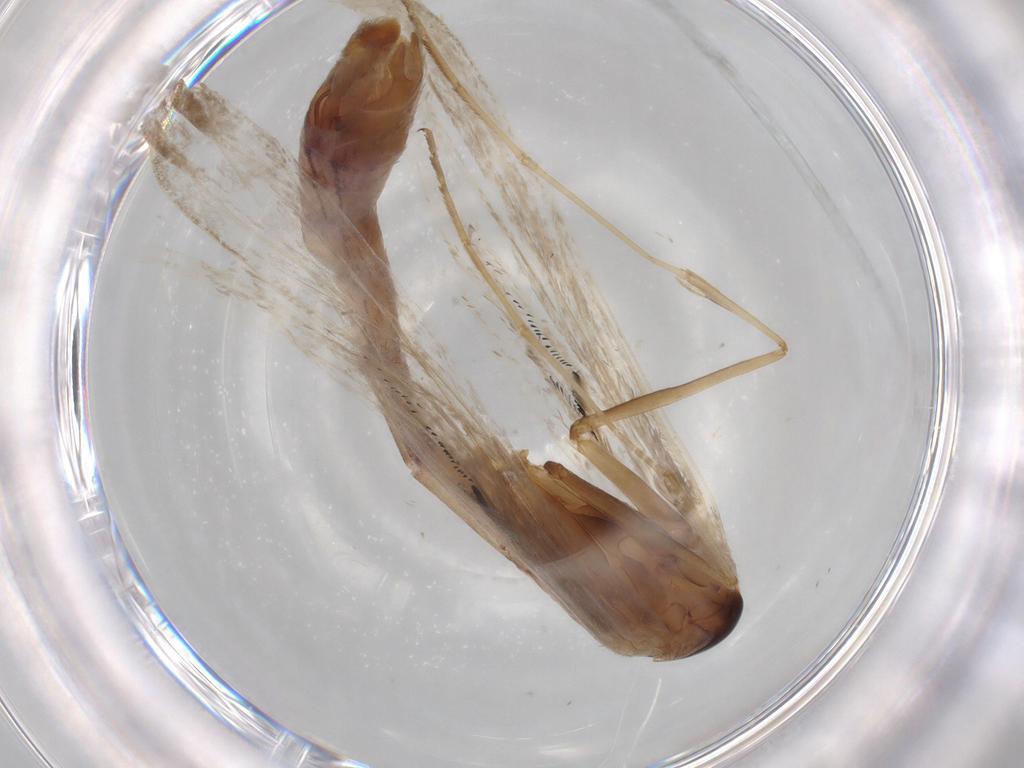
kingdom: Animalia
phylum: Arthropoda
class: Insecta
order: Lepidoptera
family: Pterophoridae
